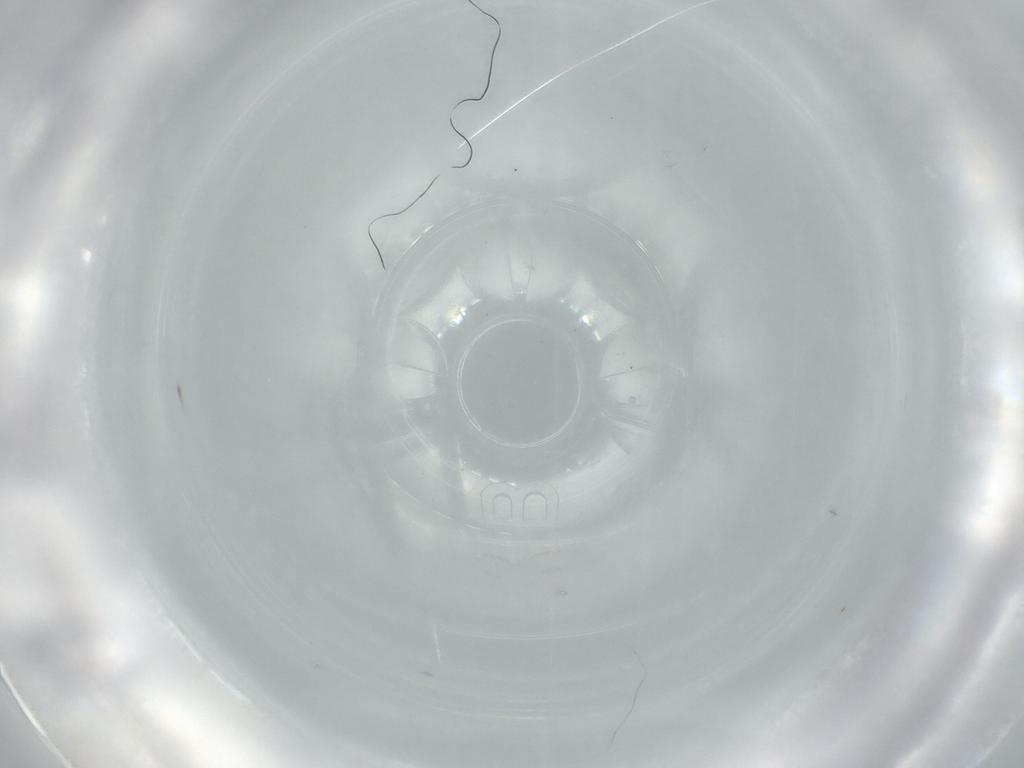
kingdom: Animalia
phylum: Arthropoda
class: Insecta
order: Hymenoptera
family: Mymaridae
